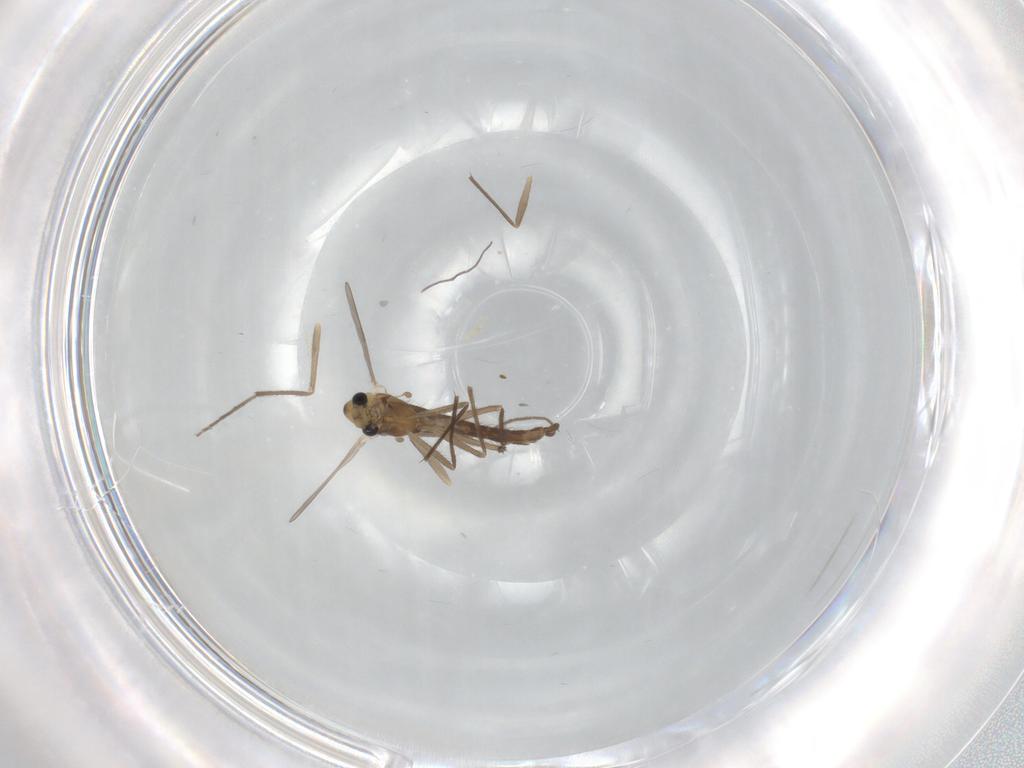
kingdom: Animalia
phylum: Arthropoda
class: Insecta
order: Diptera
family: Chironomidae
